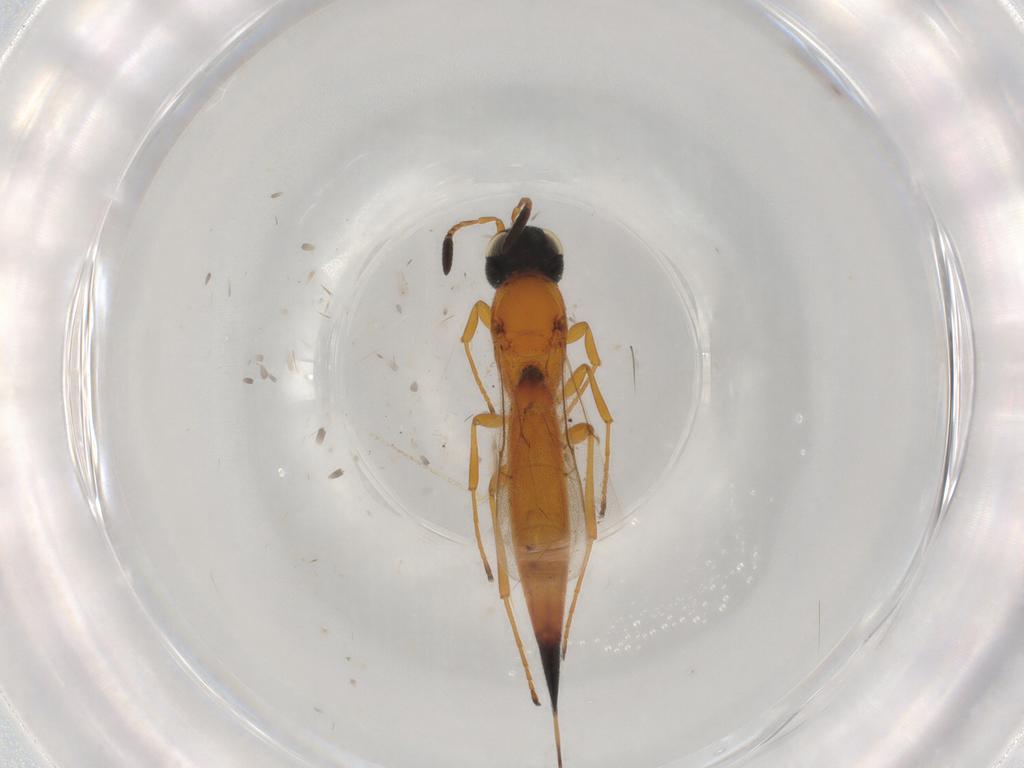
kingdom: Animalia
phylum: Arthropoda
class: Insecta
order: Hymenoptera
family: Scelionidae
